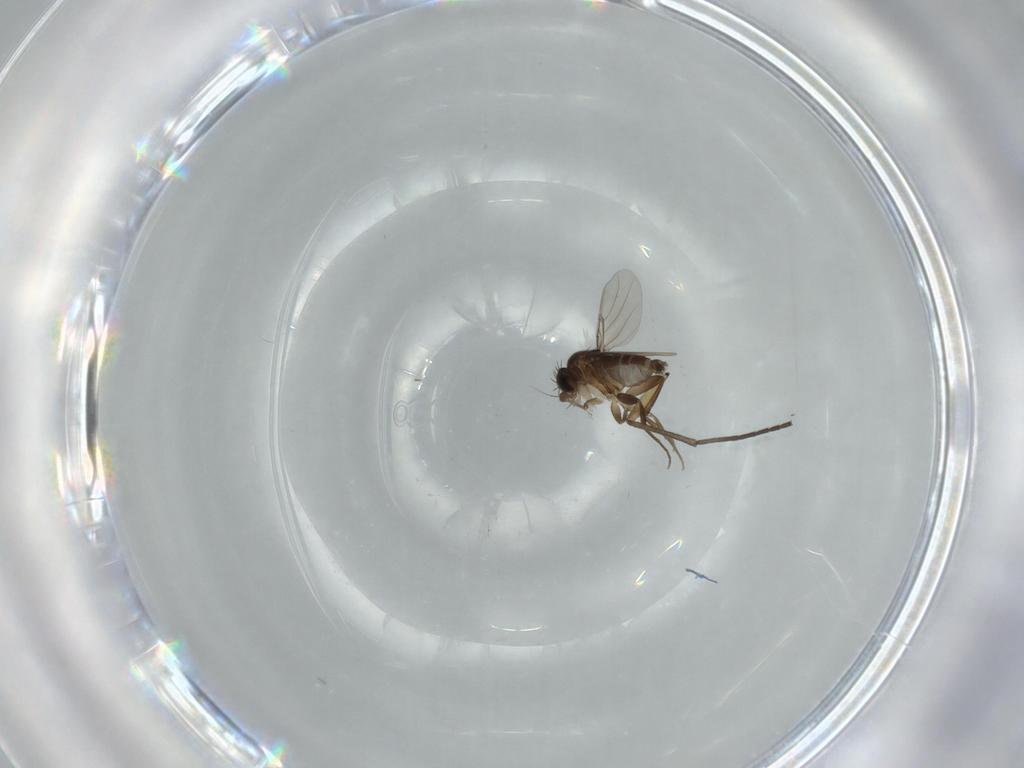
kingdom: Animalia
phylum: Arthropoda
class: Insecta
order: Diptera
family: Phoridae
